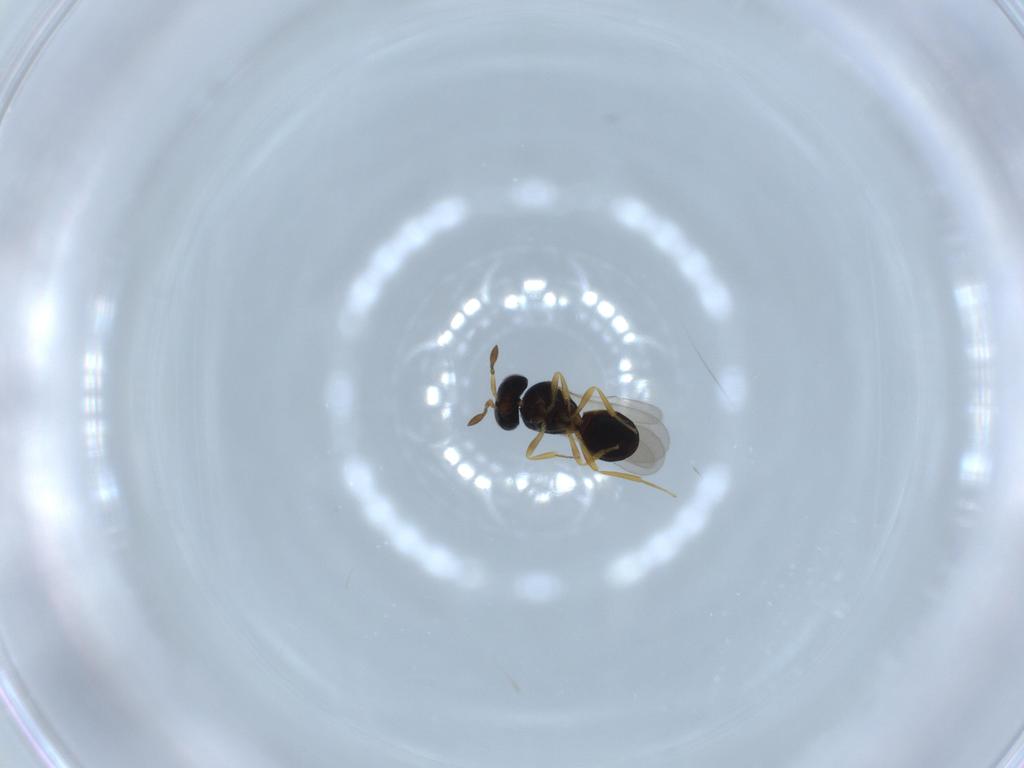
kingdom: Animalia
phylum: Arthropoda
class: Insecta
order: Hymenoptera
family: Scelionidae
